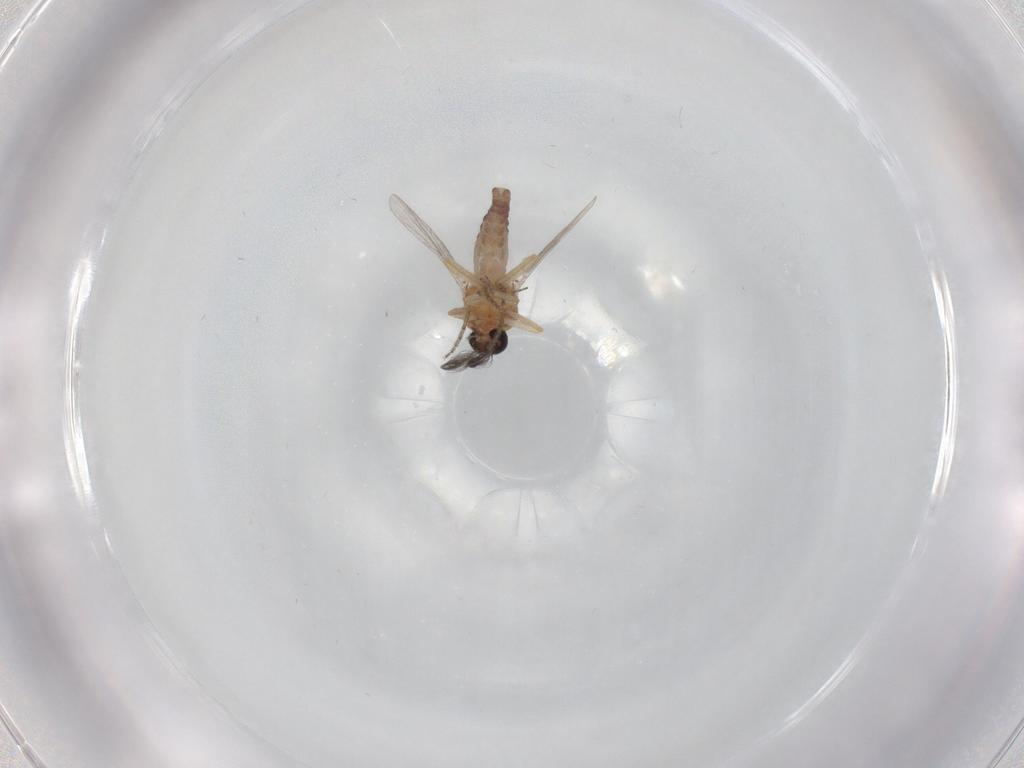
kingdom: Animalia
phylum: Arthropoda
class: Insecta
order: Diptera
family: Ceratopogonidae
